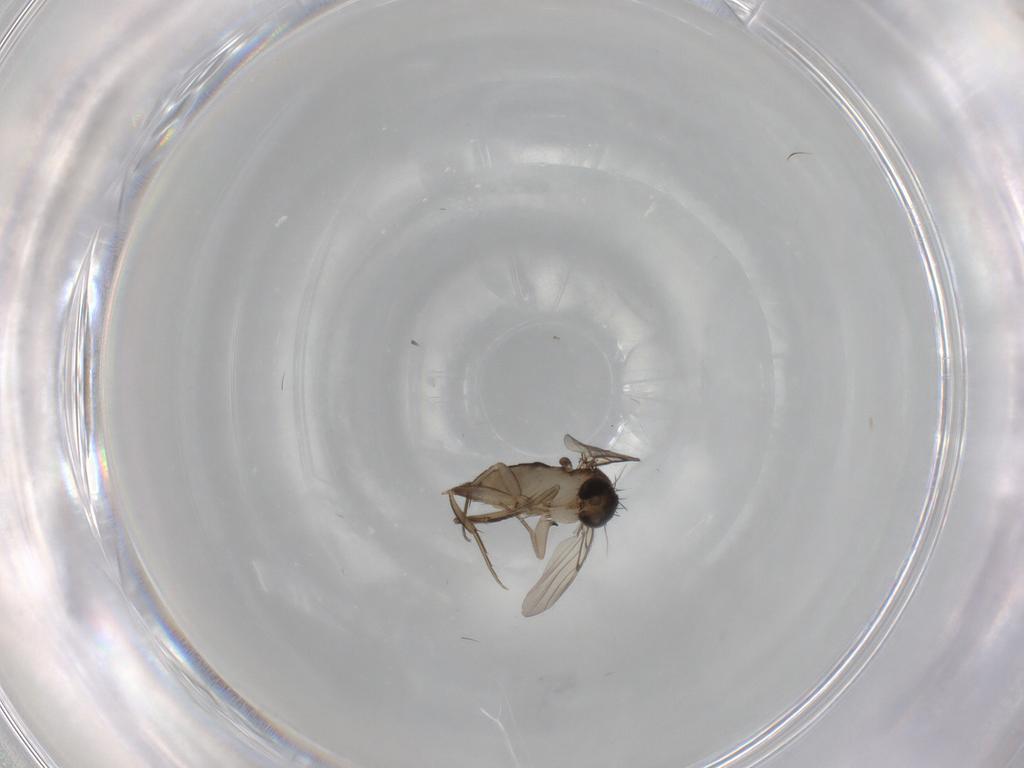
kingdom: Animalia
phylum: Arthropoda
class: Insecta
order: Diptera
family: Phoridae
